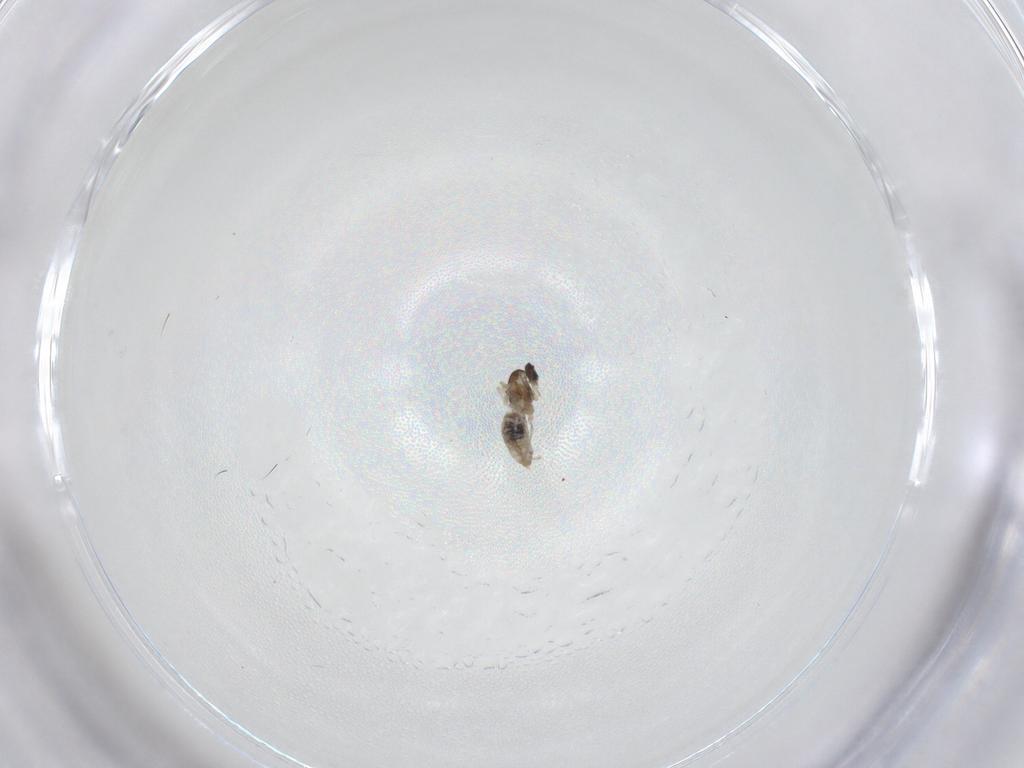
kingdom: Animalia
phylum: Arthropoda
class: Insecta
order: Diptera
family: Cecidomyiidae
